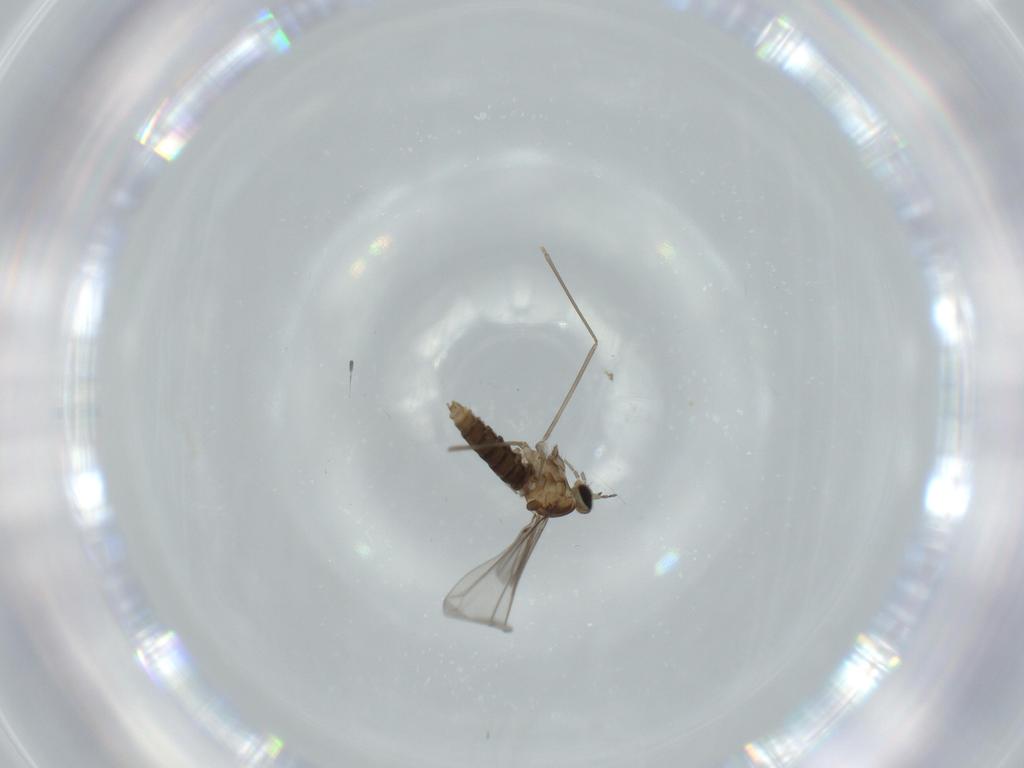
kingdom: Animalia
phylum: Arthropoda
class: Insecta
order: Diptera
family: Cecidomyiidae
